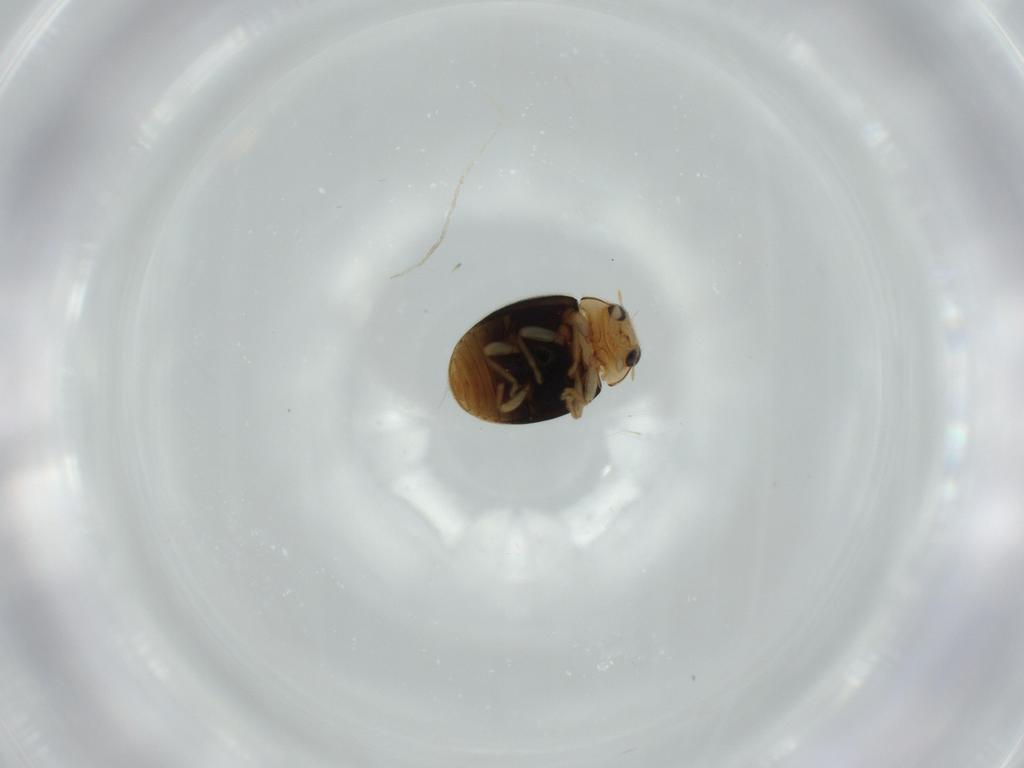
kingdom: Animalia
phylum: Arthropoda
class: Insecta
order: Coleoptera
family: Coccinellidae
